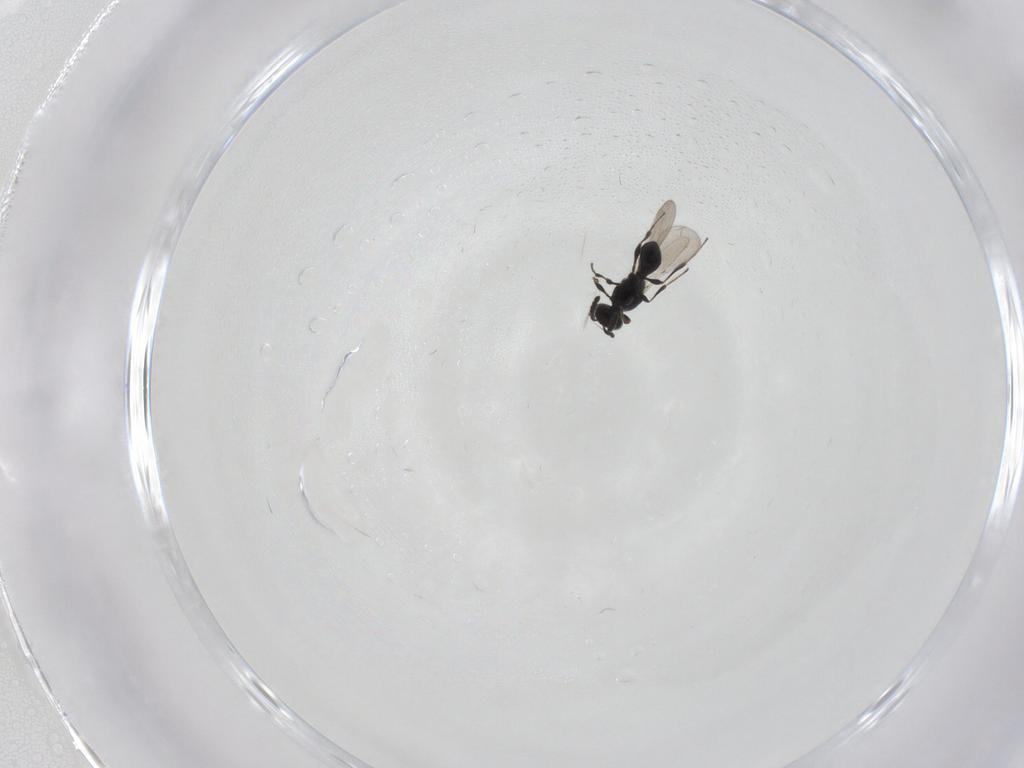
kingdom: Animalia
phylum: Arthropoda
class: Insecta
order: Hymenoptera
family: Platygastridae
